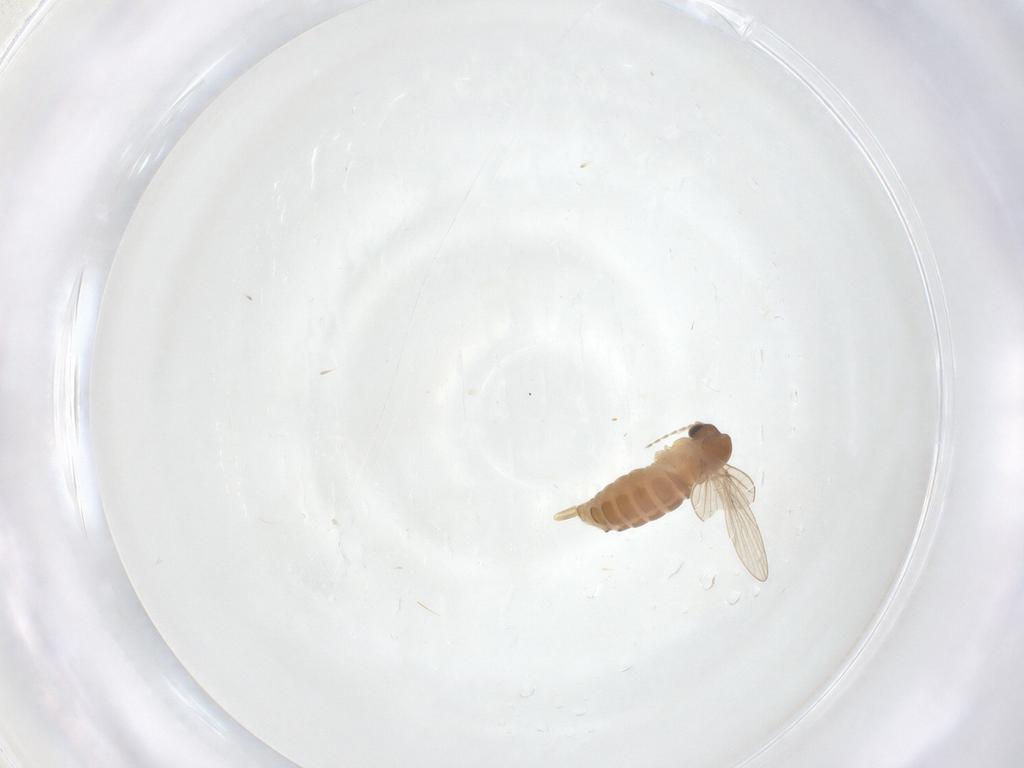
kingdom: Animalia
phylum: Arthropoda
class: Insecta
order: Diptera
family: Psychodidae
